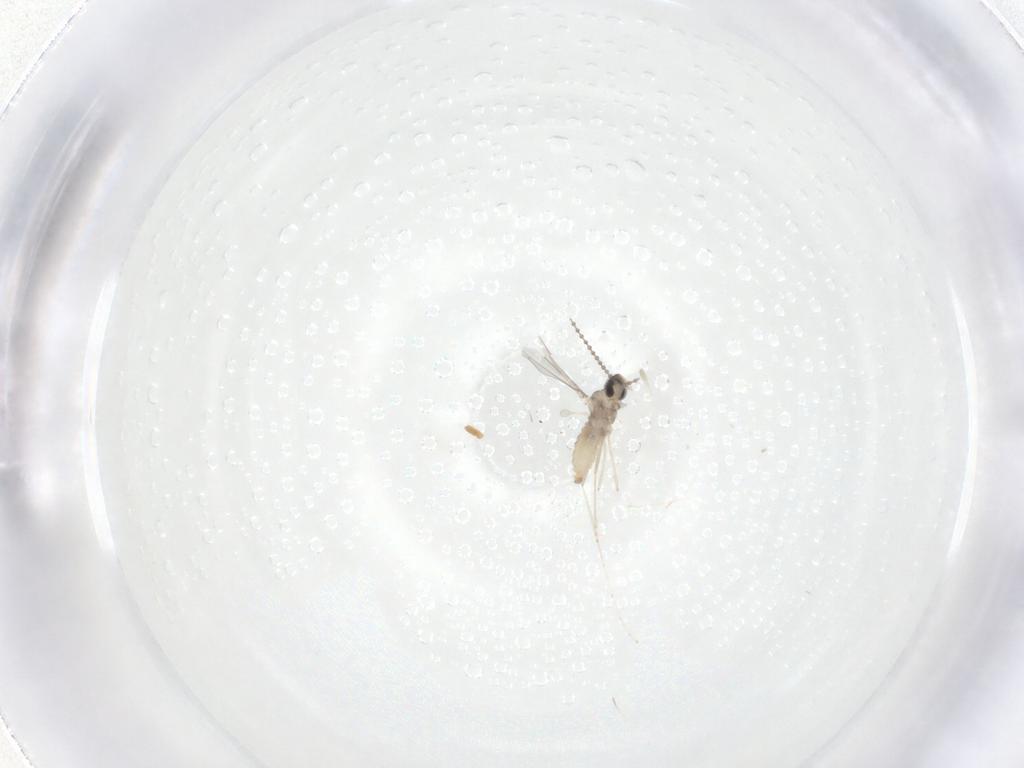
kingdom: Animalia
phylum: Arthropoda
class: Insecta
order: Diptera
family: Cecidomyiidae
